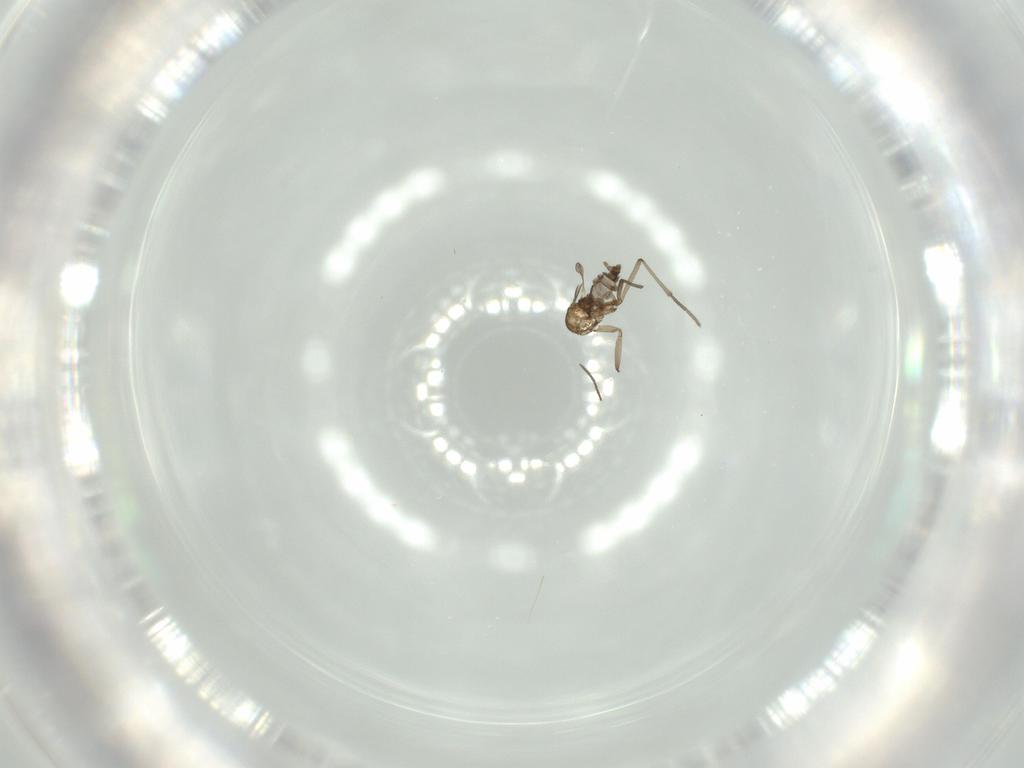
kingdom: Animalia
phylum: Arthropoda
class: Insecta
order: Diptera
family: Sciaridae
